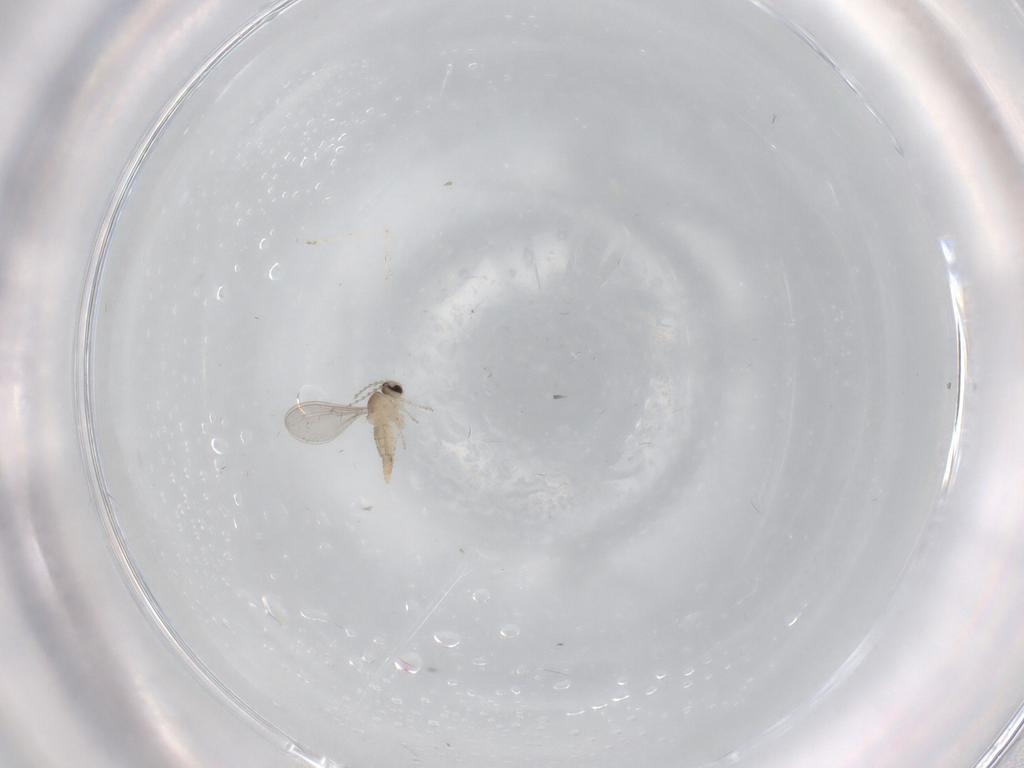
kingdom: Animalia
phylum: Arthropoda
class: Insecta
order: Diptera
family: Cecidomyiidae
